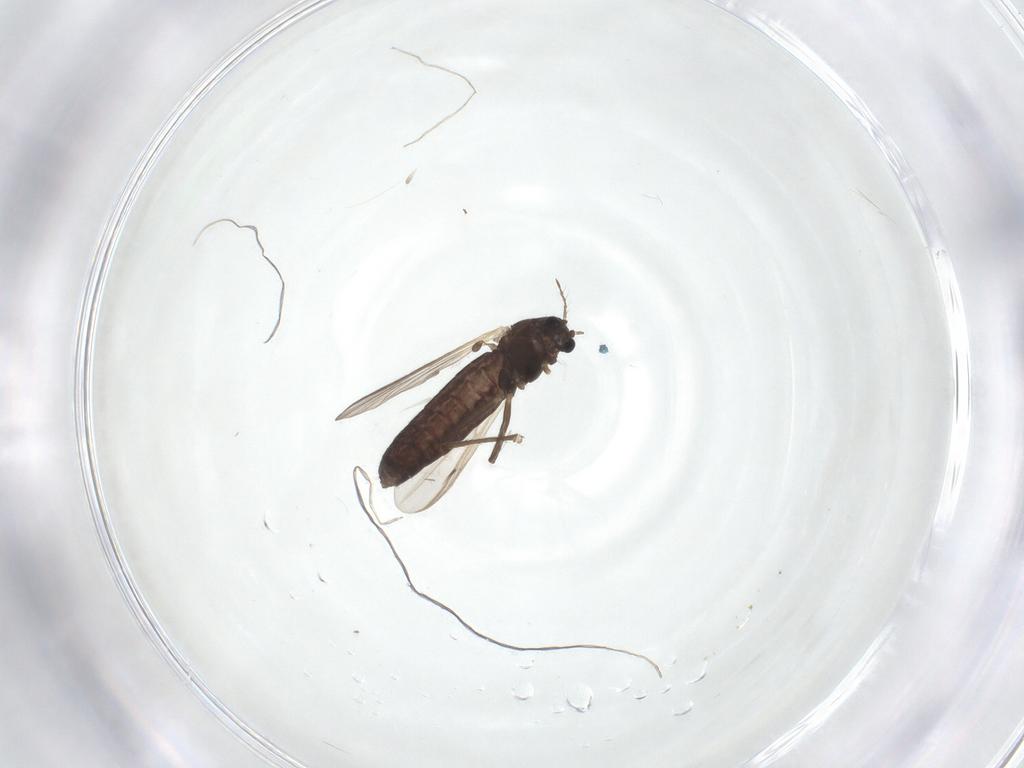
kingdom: Animalia
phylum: Arthropoda
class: Insecta
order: Diptera
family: Chironomidae
